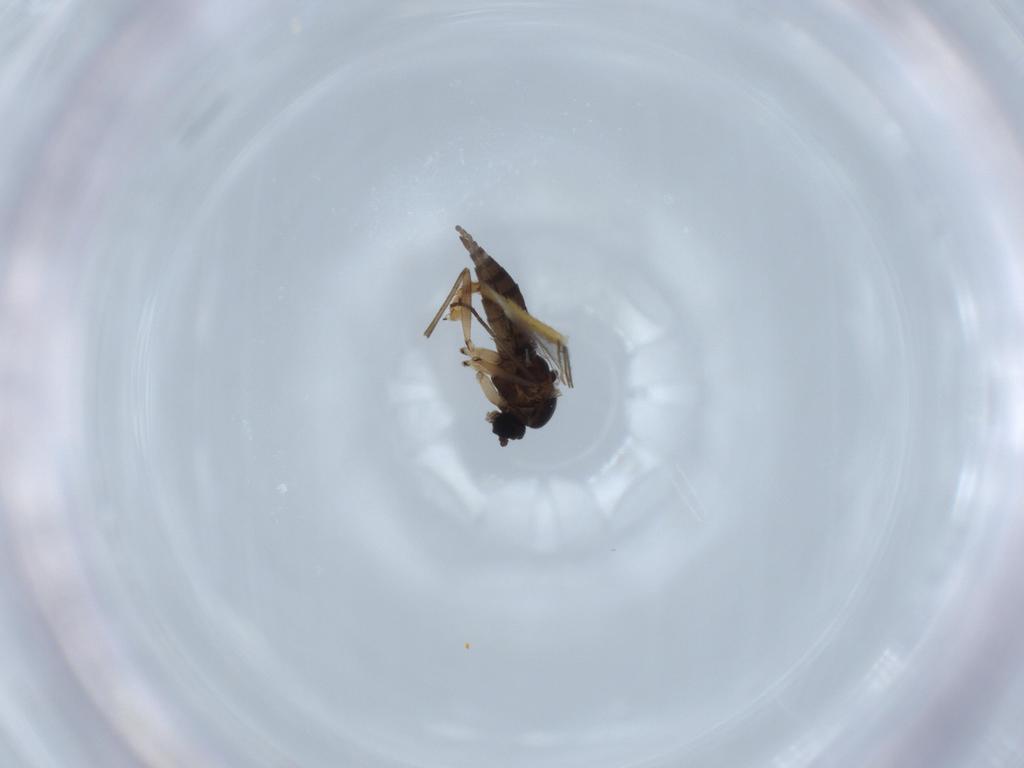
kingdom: Animalia
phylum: Arthropoda
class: Insecta
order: Diptera
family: Sciaridae
